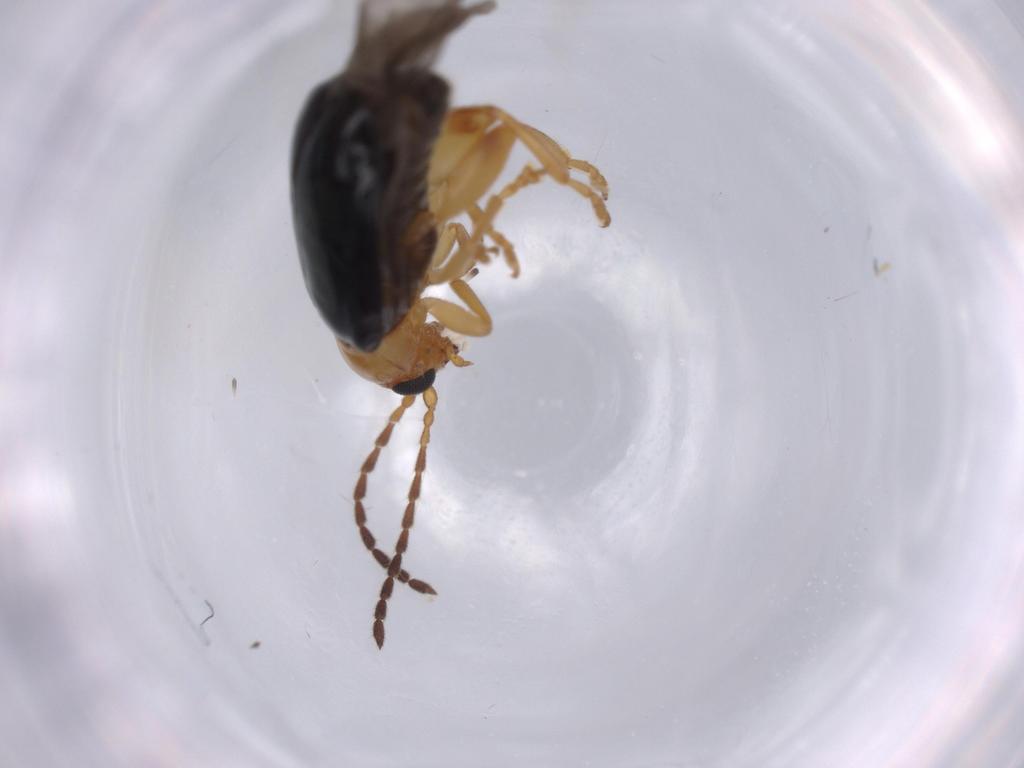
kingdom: Animalia
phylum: Arthropoda
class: Insecta
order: Coleoptera
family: Chrysomelidae
